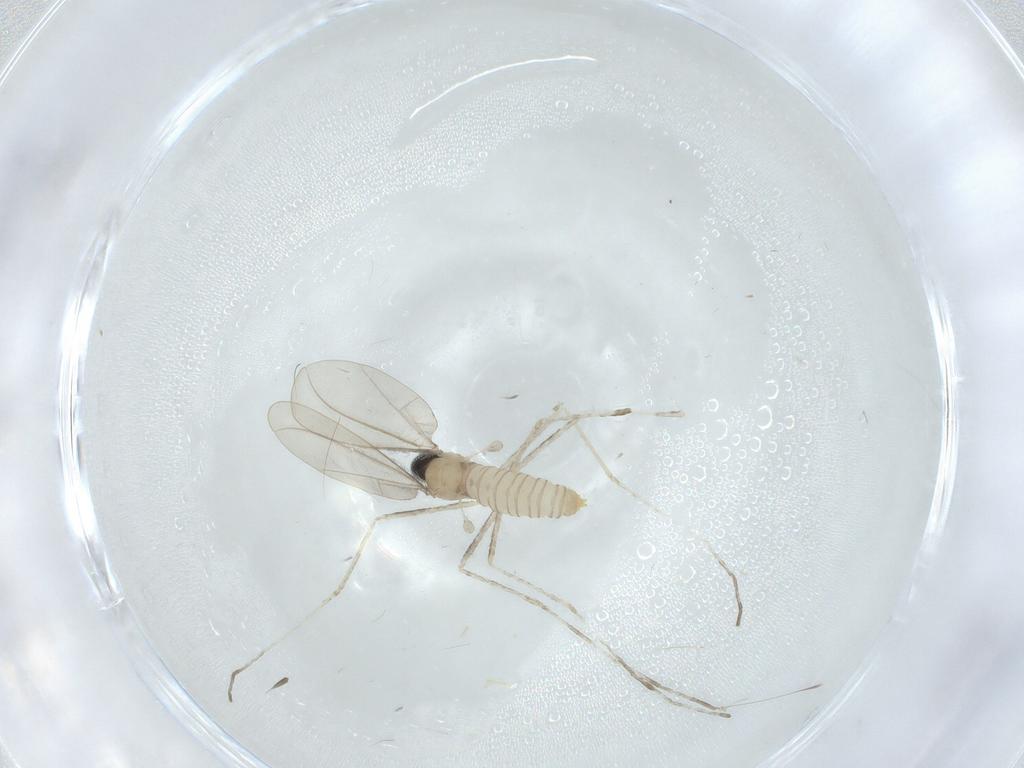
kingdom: Animalia
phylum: Arthropoda
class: Insecta
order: Diptera
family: Cecidomyiidae
